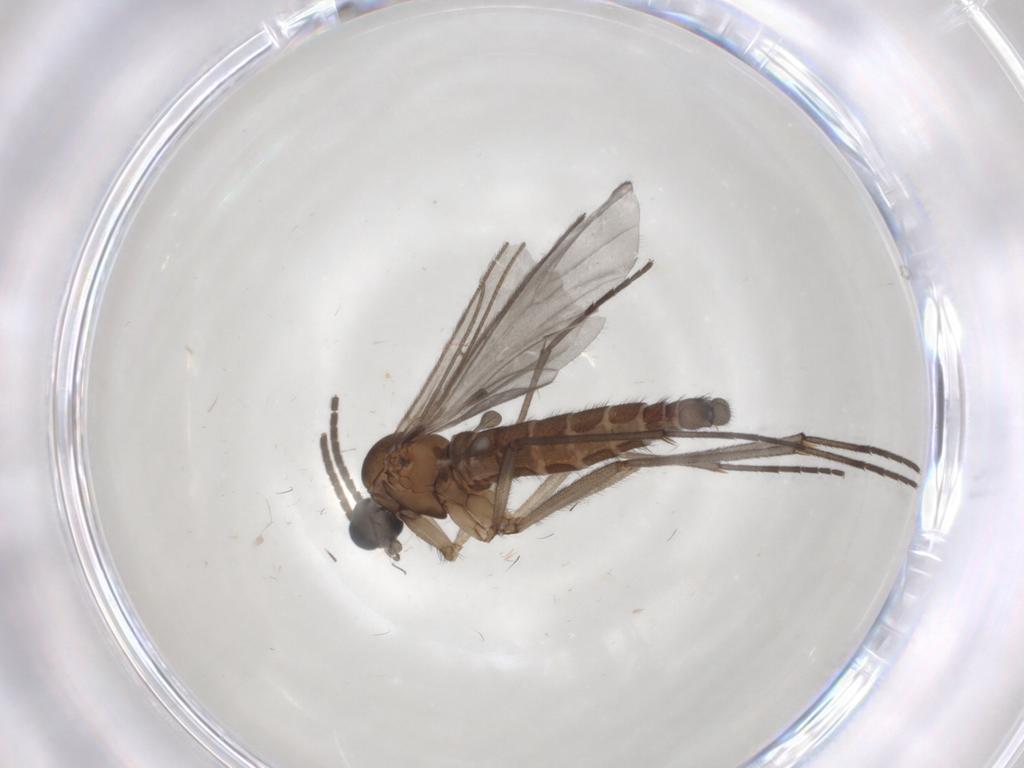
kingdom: Animalia
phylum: Arthropoda
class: Insecta
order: Diptera
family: Sciaridae
